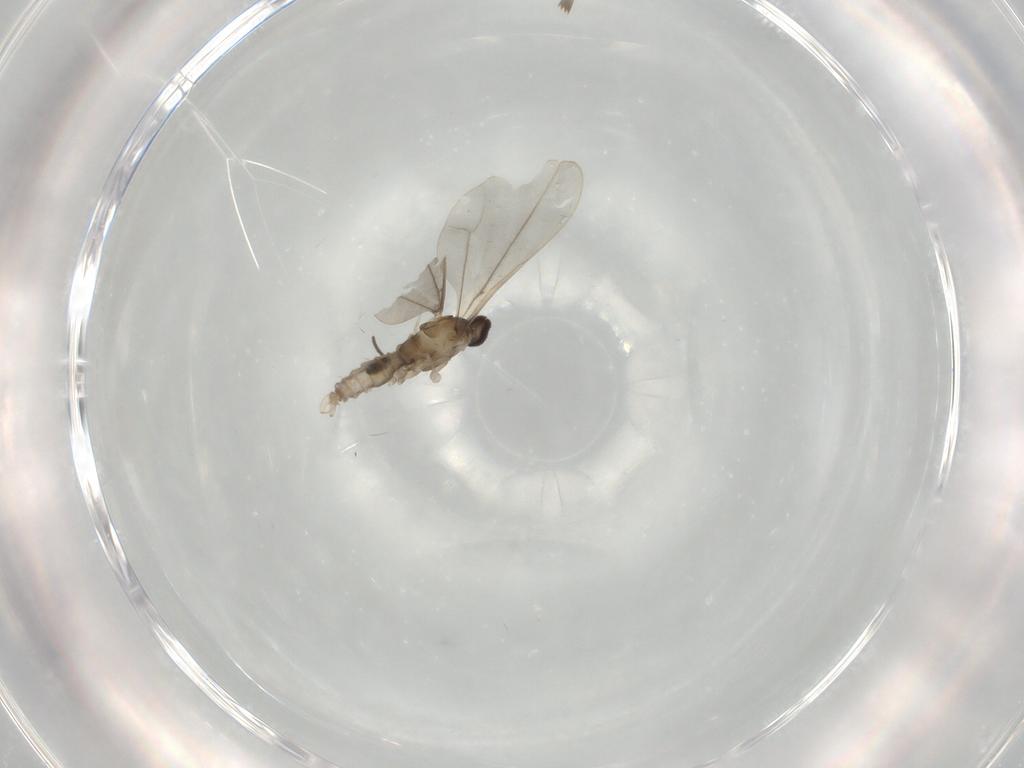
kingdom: Animalia
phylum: Arthropoda
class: Insecta
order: Diptera
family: Cecidomyiidae
